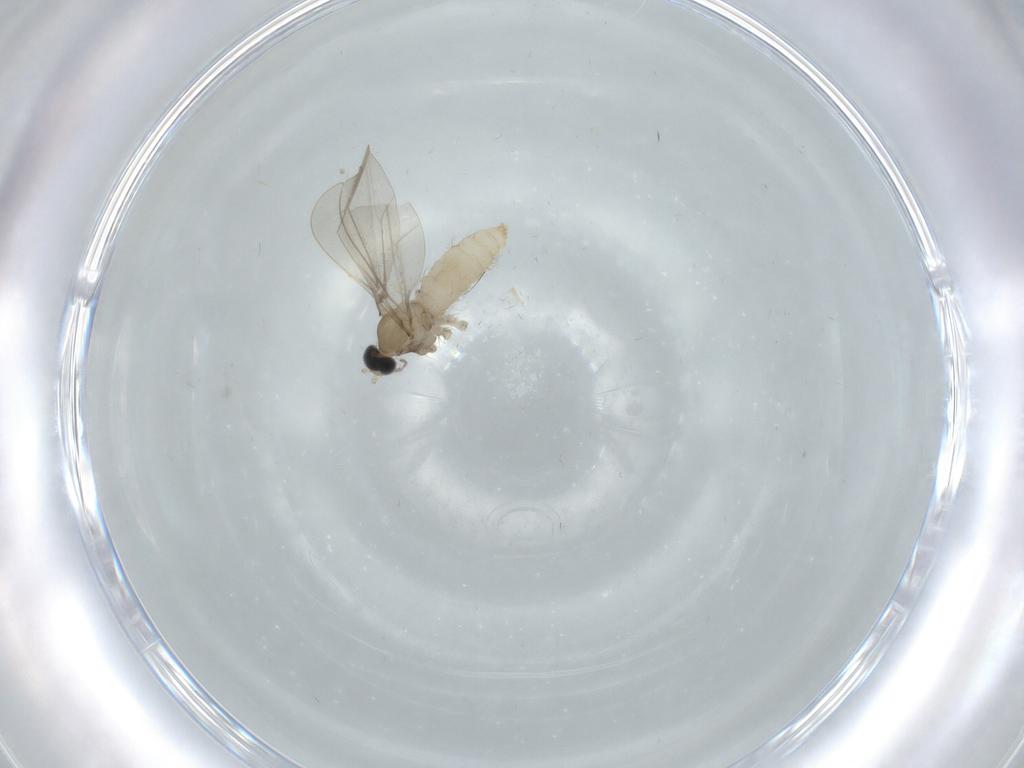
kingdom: Animalia
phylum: Arthropoda
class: Insecta
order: Diptera
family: Cecidomyiidae
